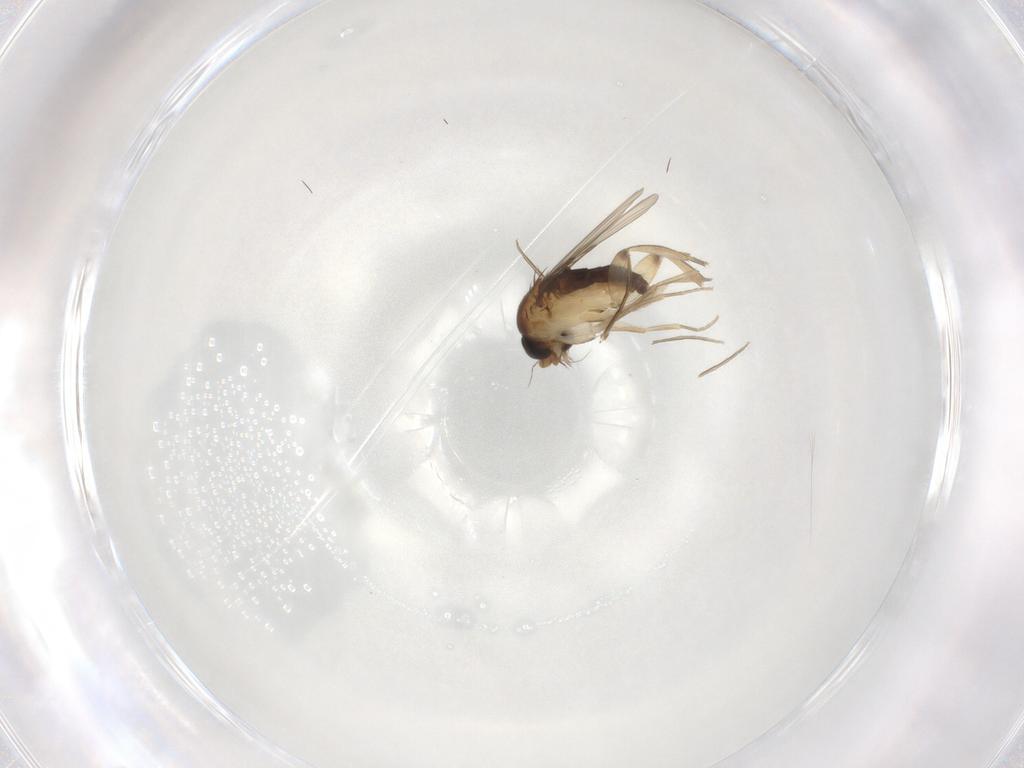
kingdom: Animalia
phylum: Arthropoda
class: Insecta
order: Diptera
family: Phoridae
